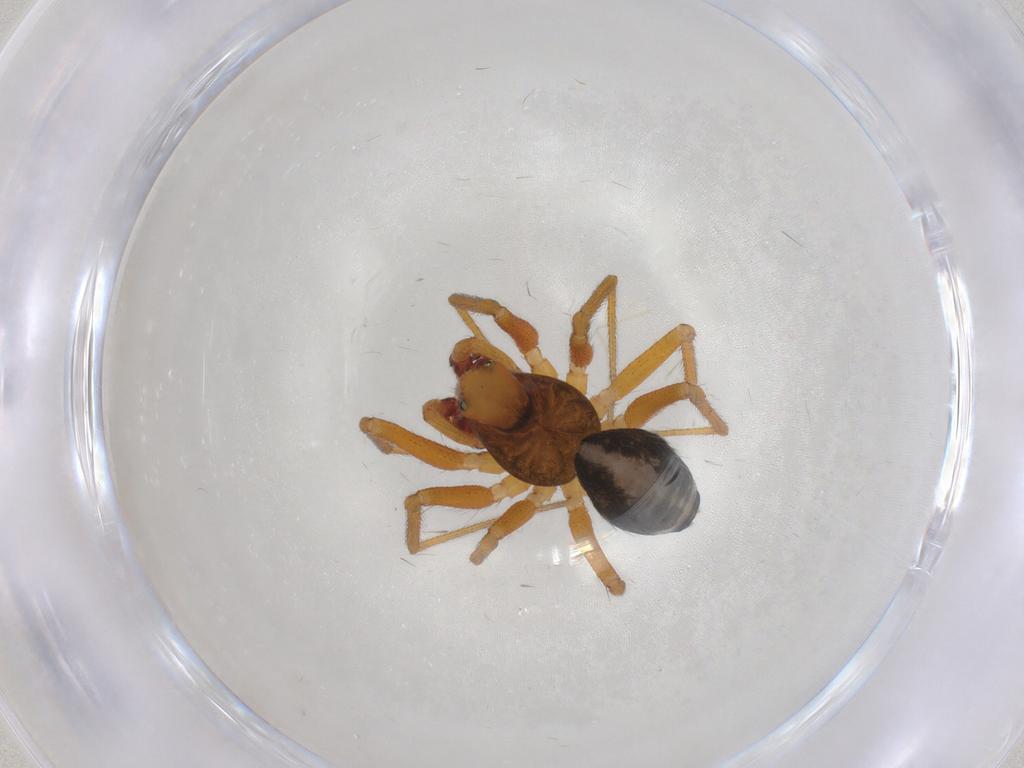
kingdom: Animalia
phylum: Arthropoda
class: Arachnida
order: Araneae
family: Linyphiidae
